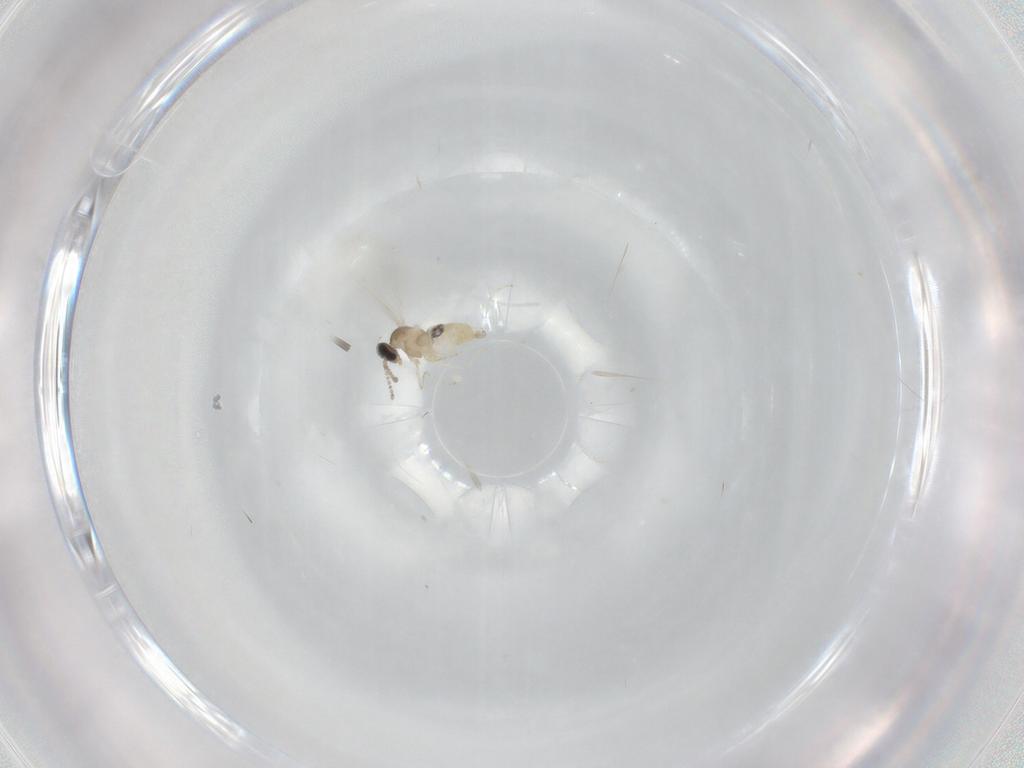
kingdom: Animalia
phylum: Arthropoda
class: Insecta
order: Diptera
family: Cecidomyiidae
